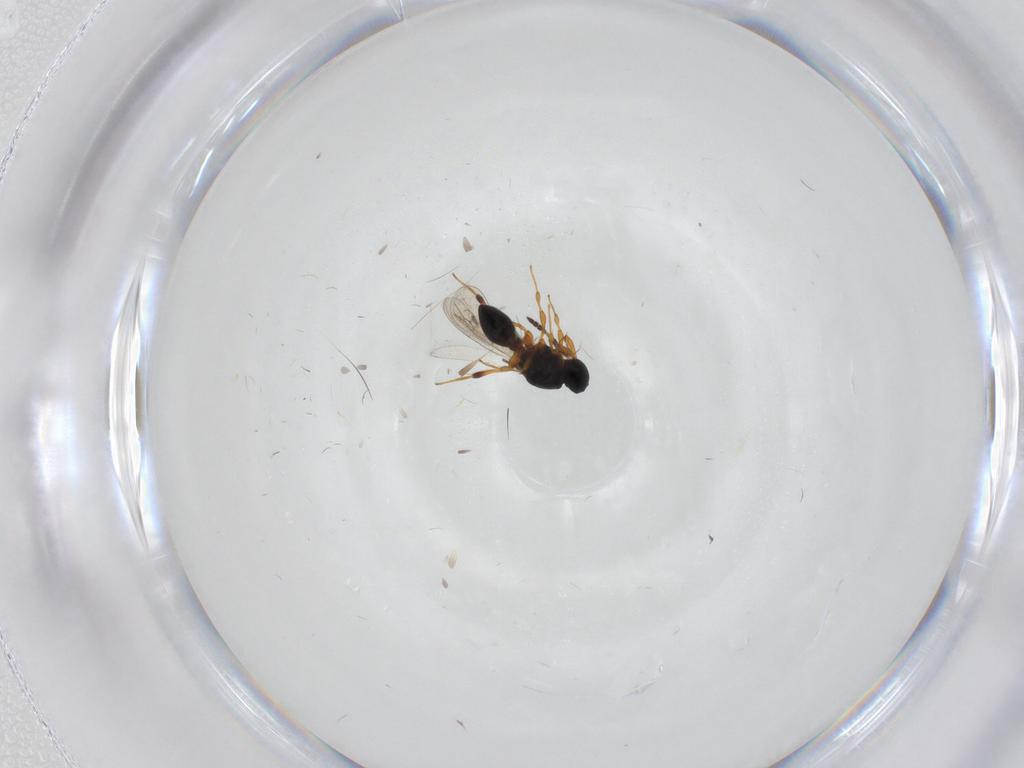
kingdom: Animalia
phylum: Arthropoda
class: Insecta
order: Hymenoptera
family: Platygastridae
